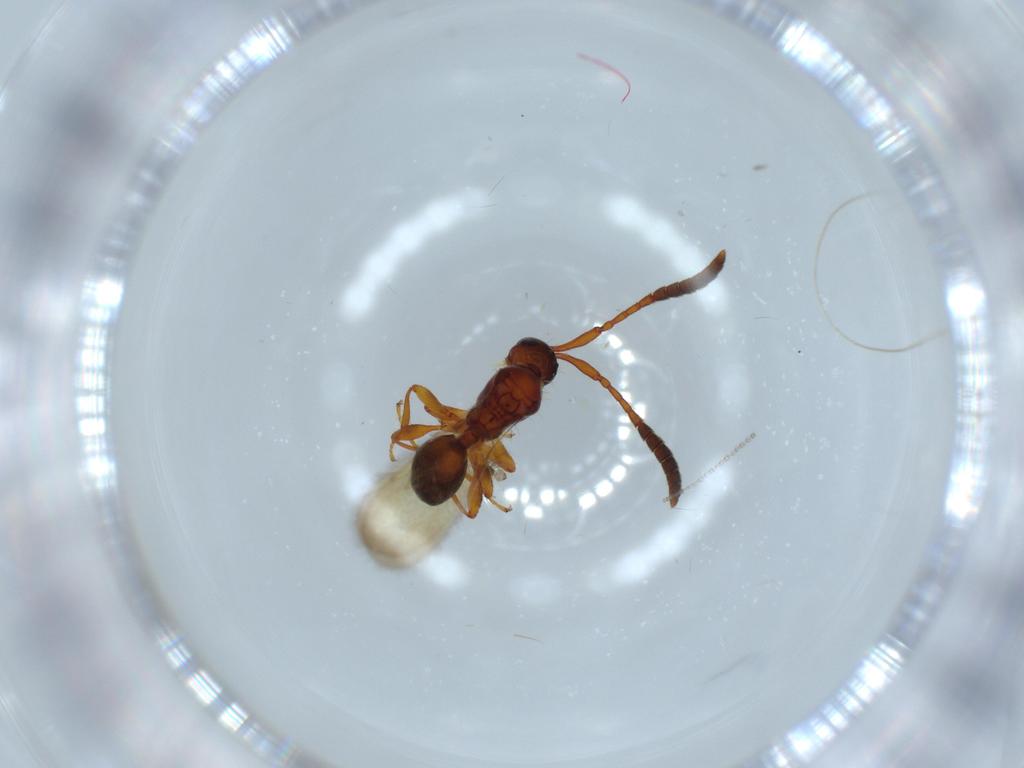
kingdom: Animalia
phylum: Arthropoda
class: Insecta
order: Hymenoptera
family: Diapriidae
